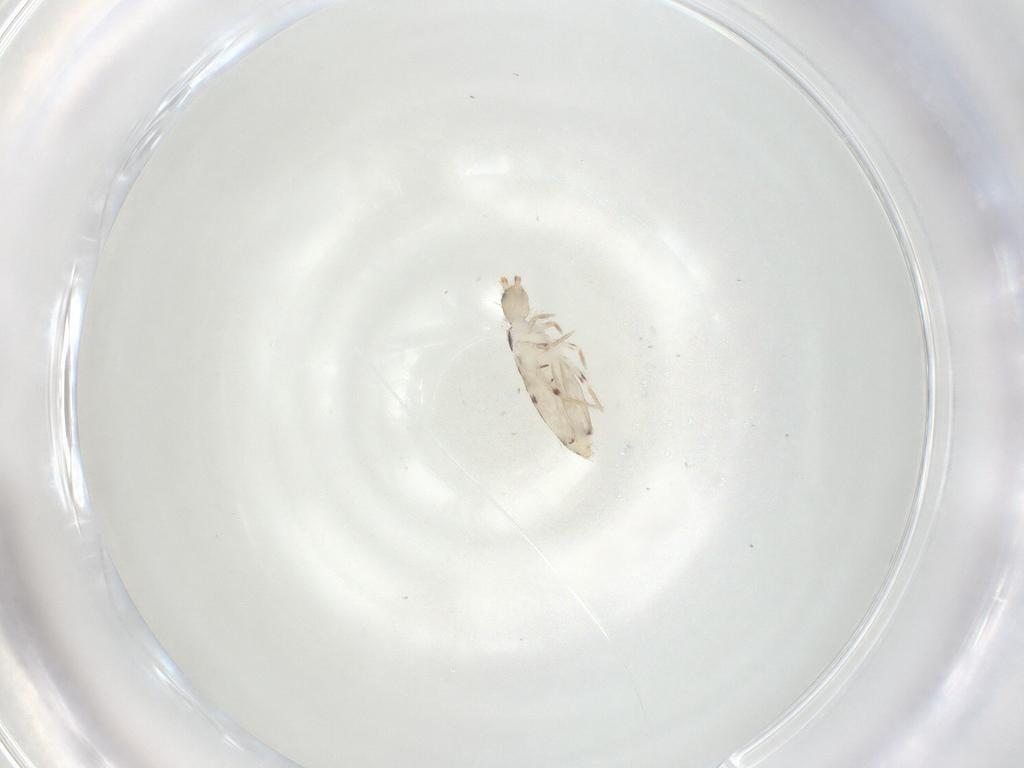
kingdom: Animalia
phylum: Arthropoda
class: Collembola
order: Entomobryomorpha
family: Entomobryidae
